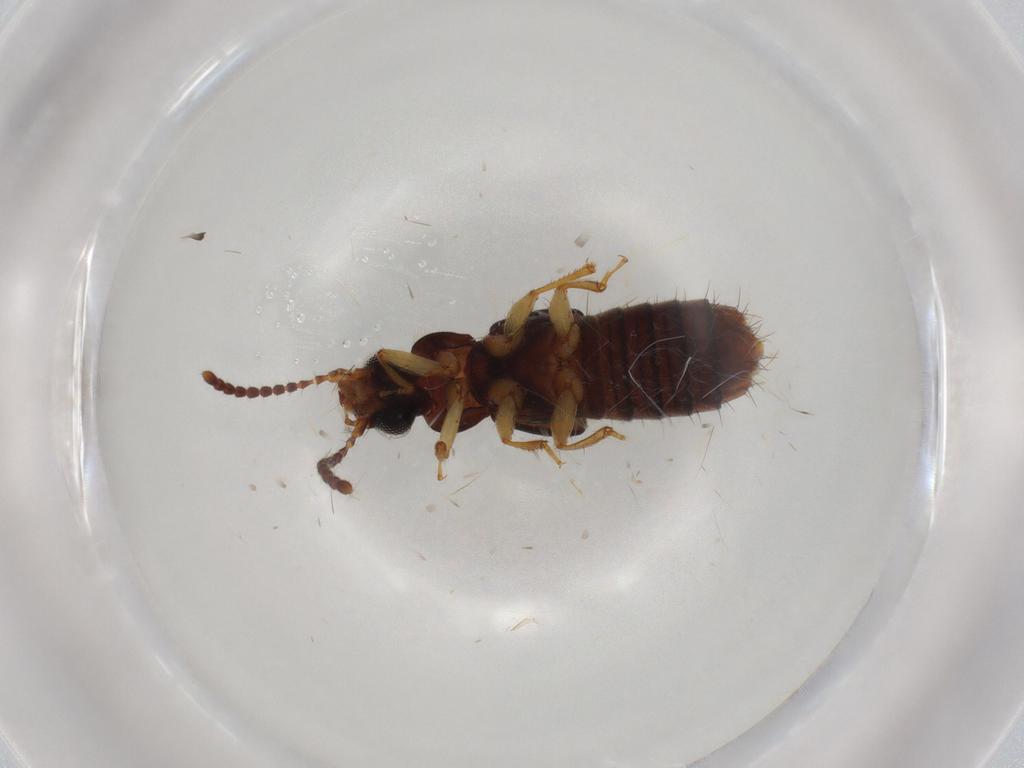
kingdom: Animalia
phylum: Arthropoda
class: Insecta
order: Coleoptera
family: Staphylinidae
